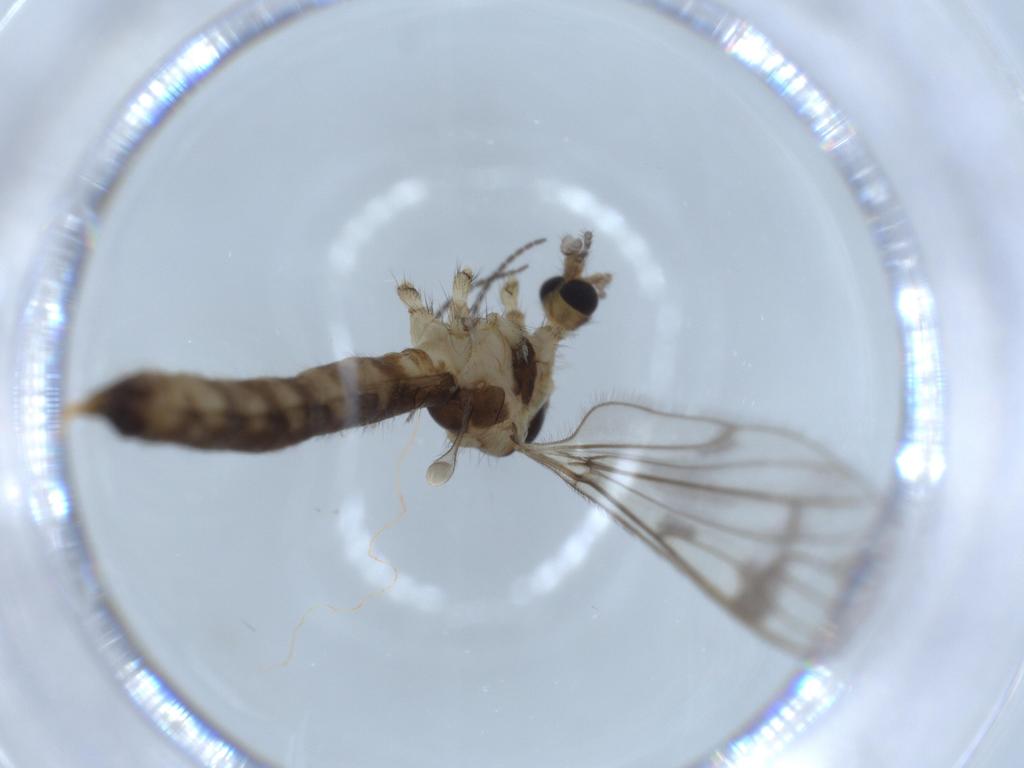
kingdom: Animalia
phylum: Arthropoda
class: Insecta
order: Diptera
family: Limoniidae
